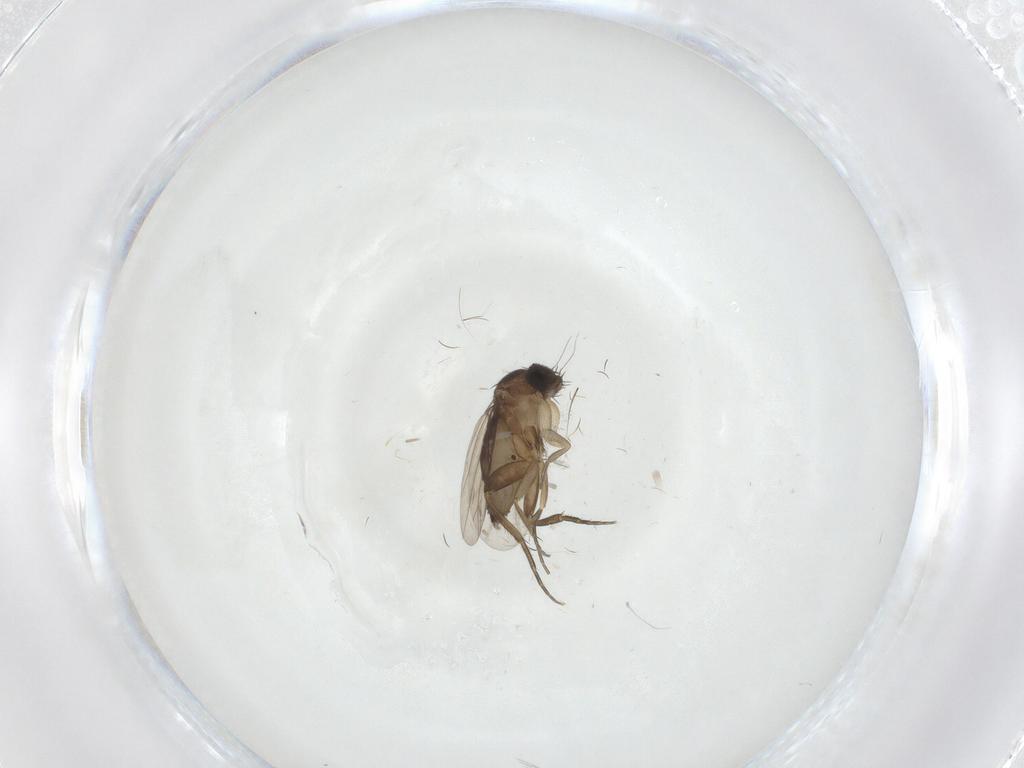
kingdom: Animalia
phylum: Arthropoda
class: Insecta
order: Diptera
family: Phoridae
